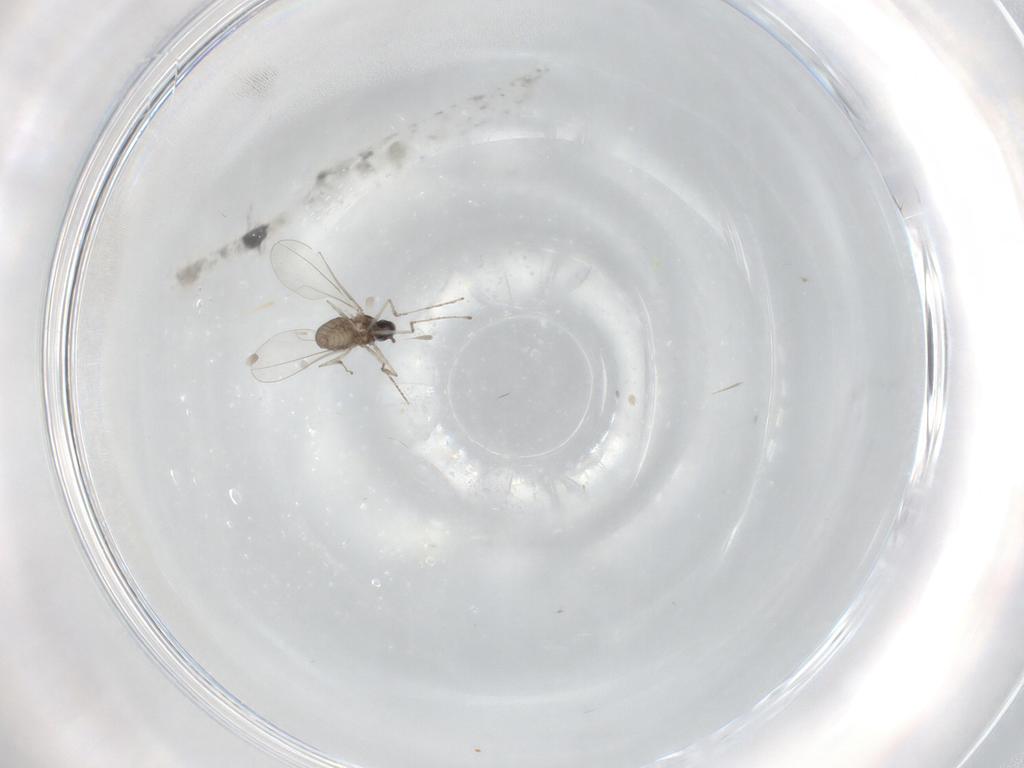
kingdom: Animalia
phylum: Arthropoda
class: Insecta
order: Diptera
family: Cecidomyiidae
